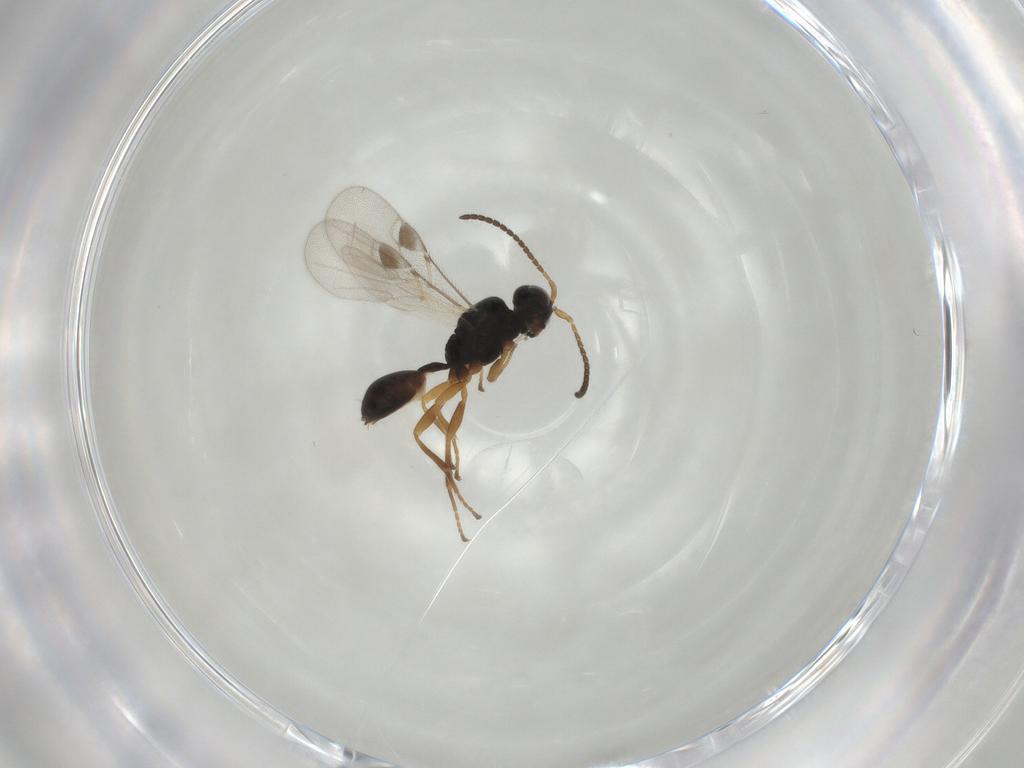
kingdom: Animalia
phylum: Arthropoda
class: Insecta
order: Hymenoptera
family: Braconidae
